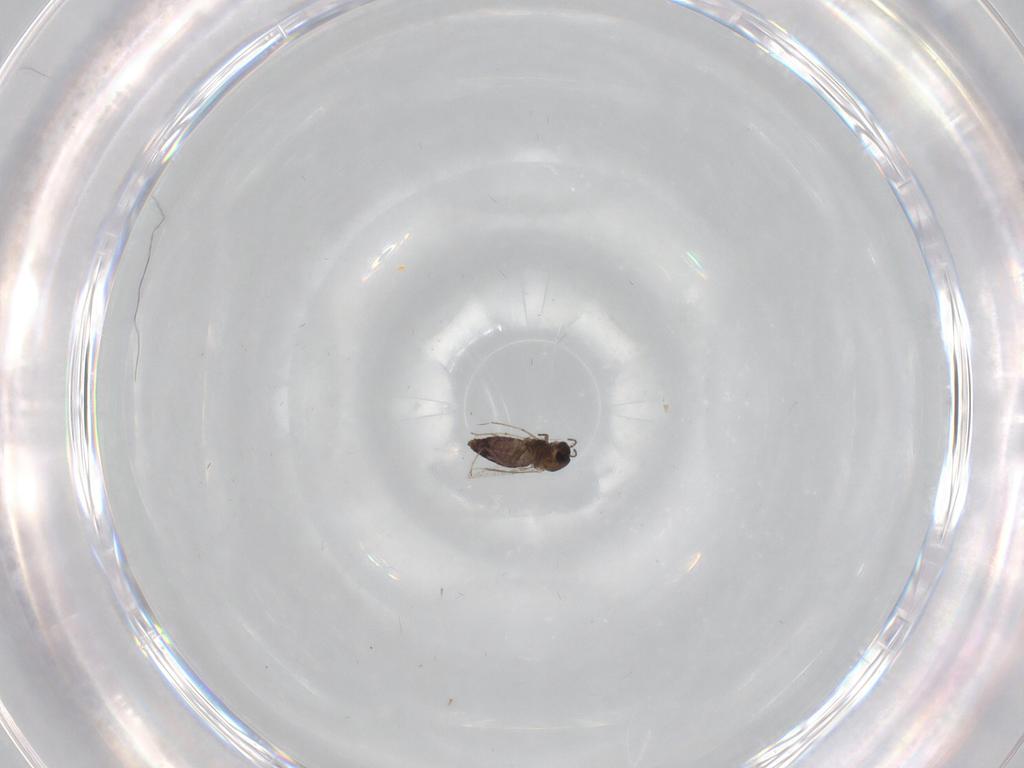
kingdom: Animalia
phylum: Arthropoda
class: Insecta
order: Diptera
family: Chironomidae
